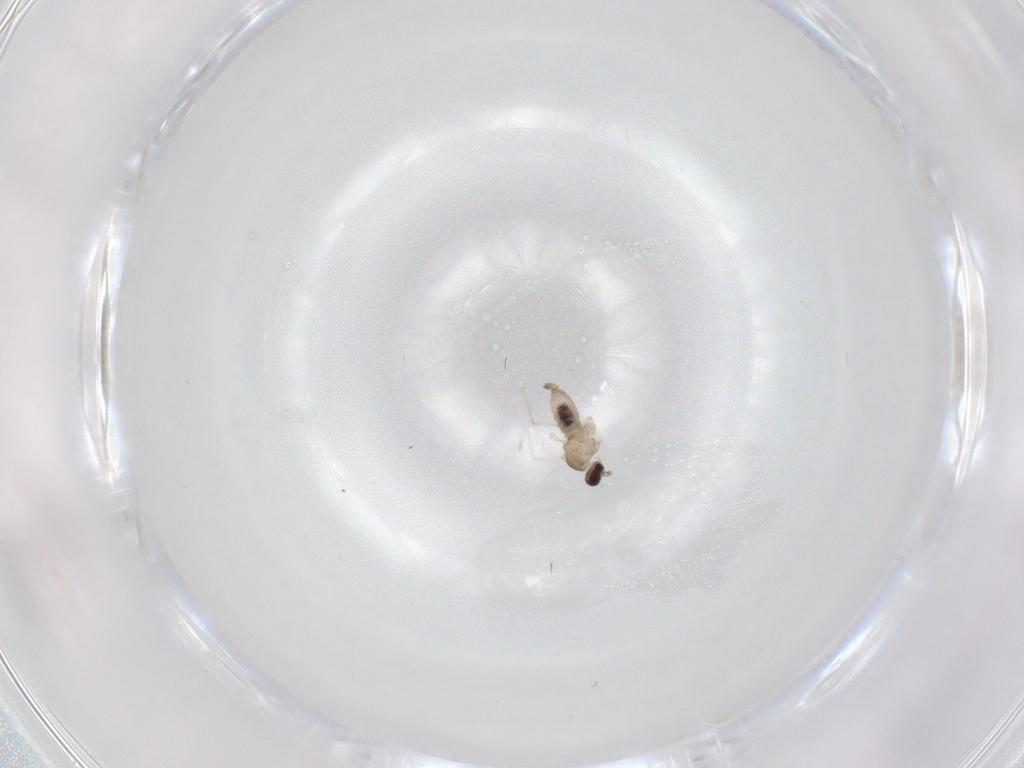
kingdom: Animalia
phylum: Arthropoda
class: Insecta
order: Diptera
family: Cecidomyiidae
